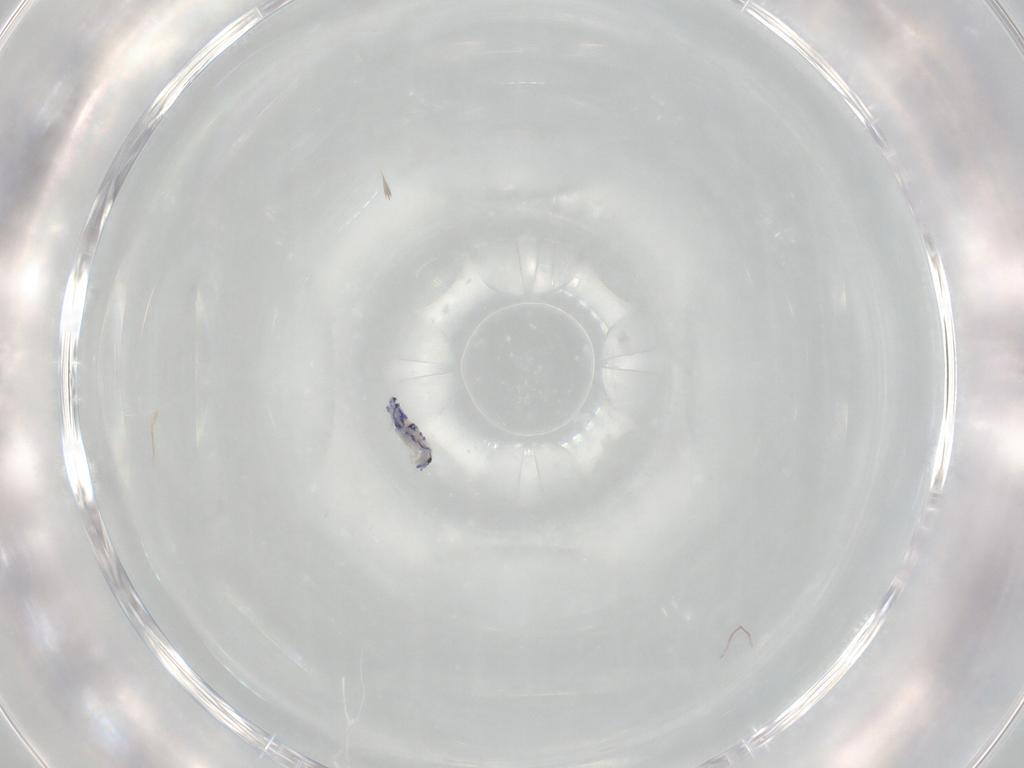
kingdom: Animalia
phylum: Arthropoda
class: Collembola
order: Entomobryomorpha
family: Entomobryidae
